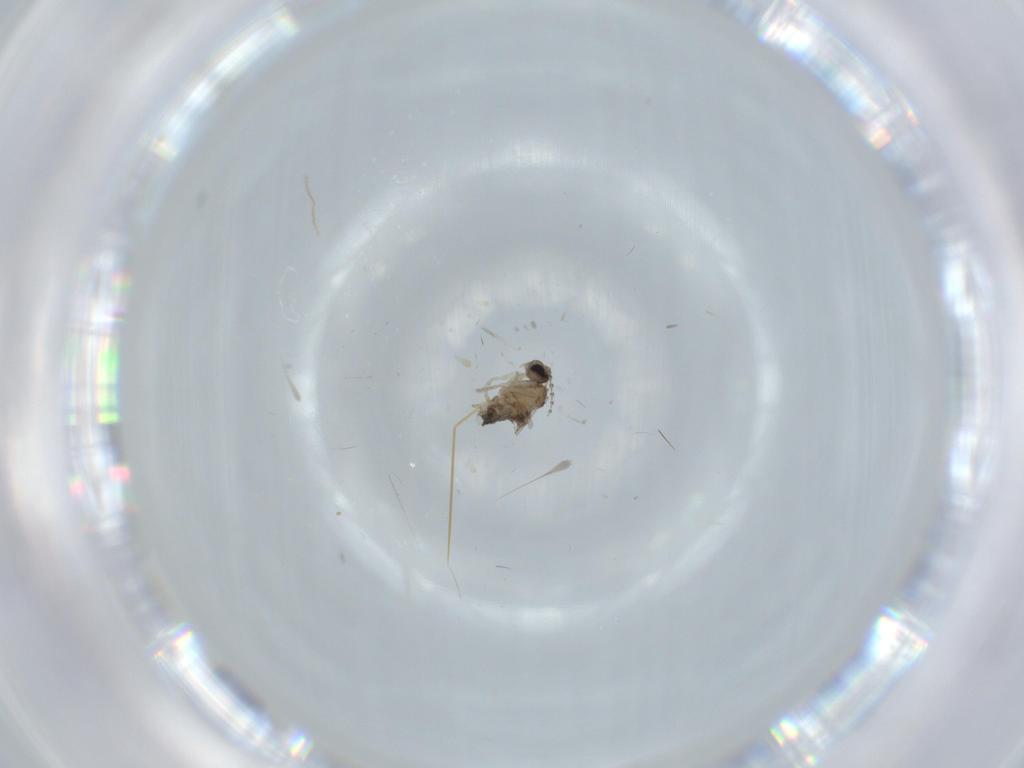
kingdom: Animalia
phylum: Arthropoda
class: Insecta
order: Diptera
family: Cecidomyiidae
